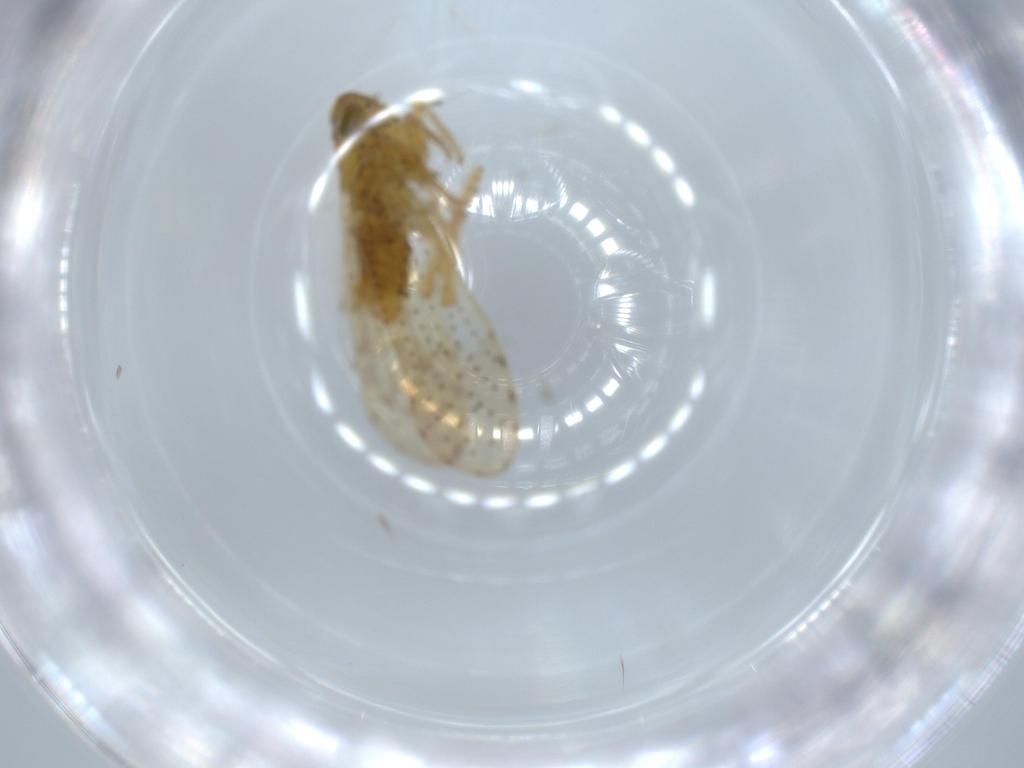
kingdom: Animalia
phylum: Arthropoda
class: Insecta
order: Hemiptera
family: Delphacidae
